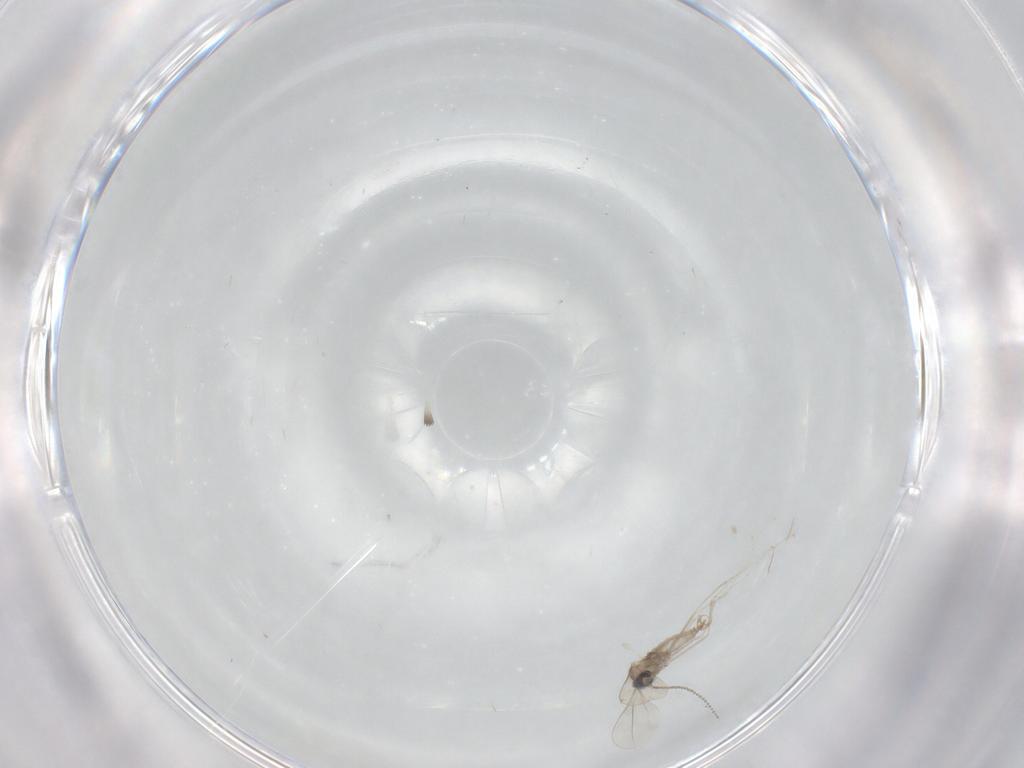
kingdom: Animalia
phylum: Arthropoda
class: Insecta
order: Diptera
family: Cecidomyiidae
